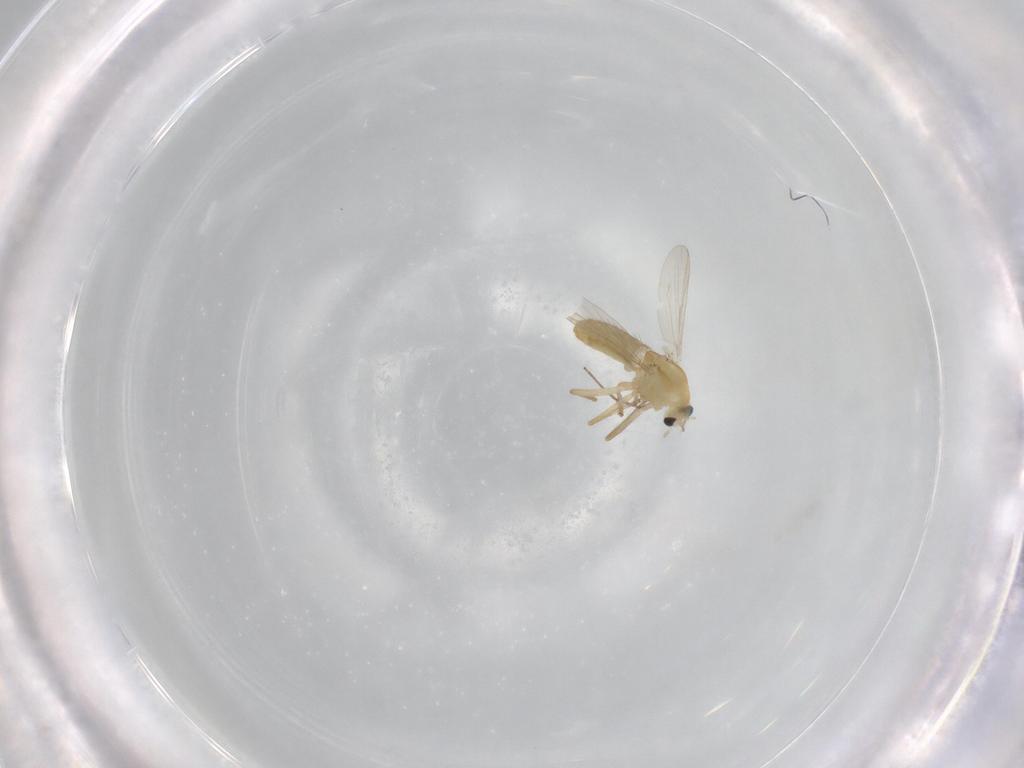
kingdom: Animalia
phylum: Arthropoda
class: Insecta
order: Diptera
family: Chironomidae
